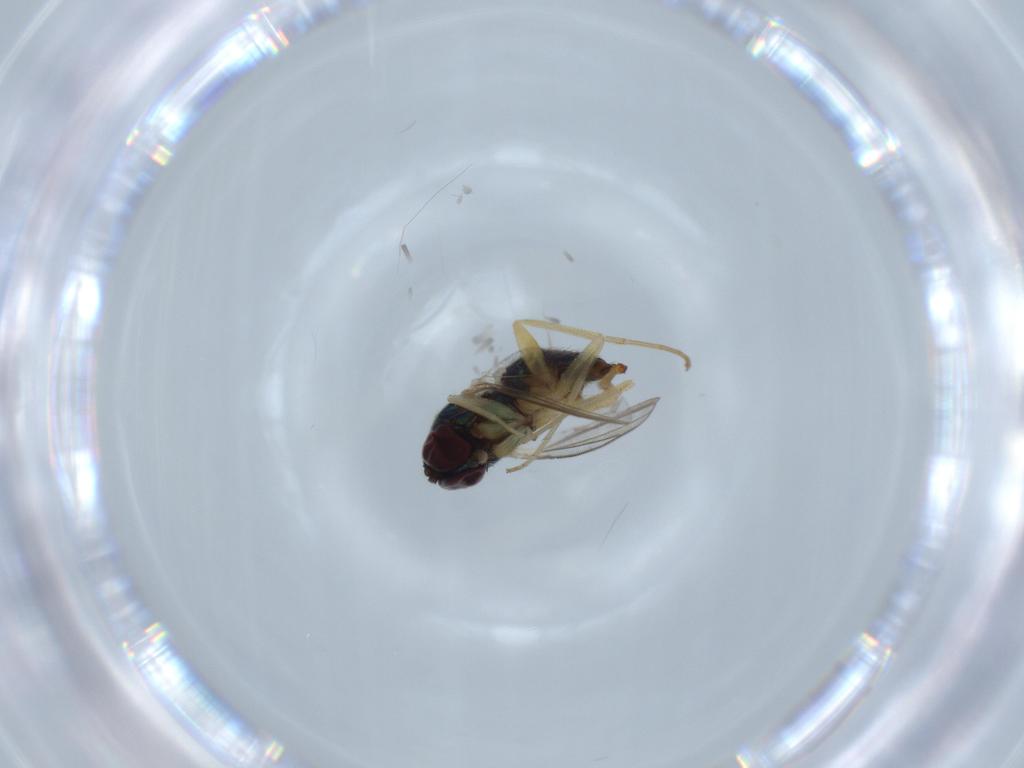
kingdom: Animalia
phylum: Arthropoda
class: Insecta
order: Diptera
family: Dolichopodidae
